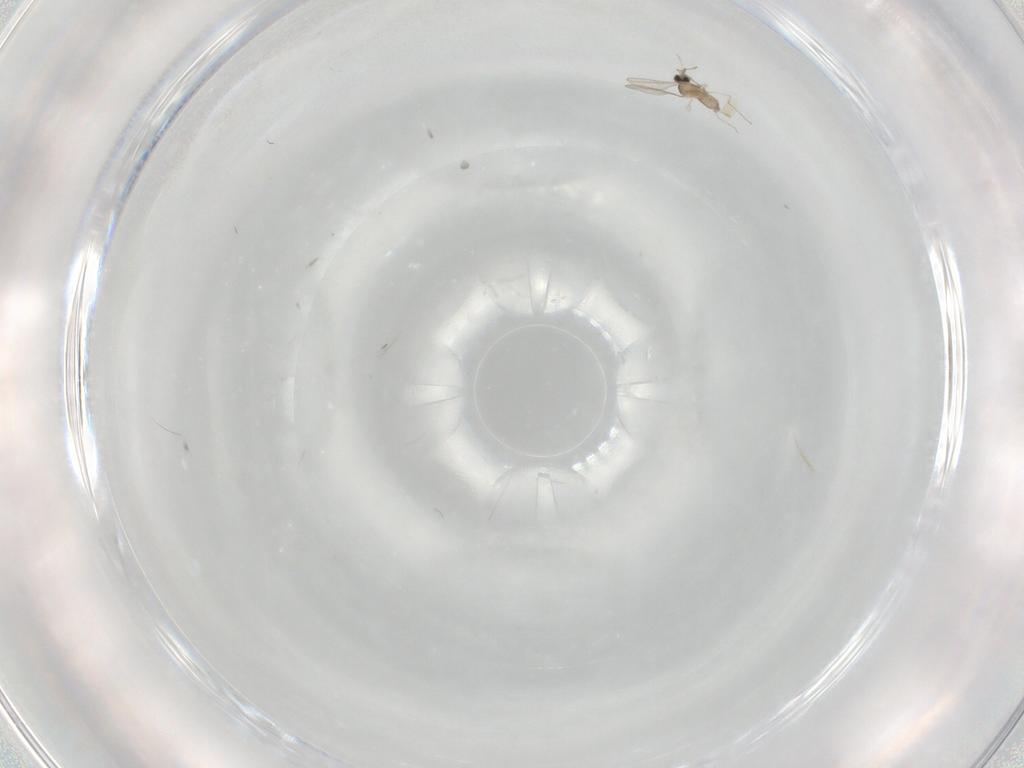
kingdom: Animalia
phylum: Arthropoda
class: Insecta
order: Diptera
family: Cecidomyiidae
